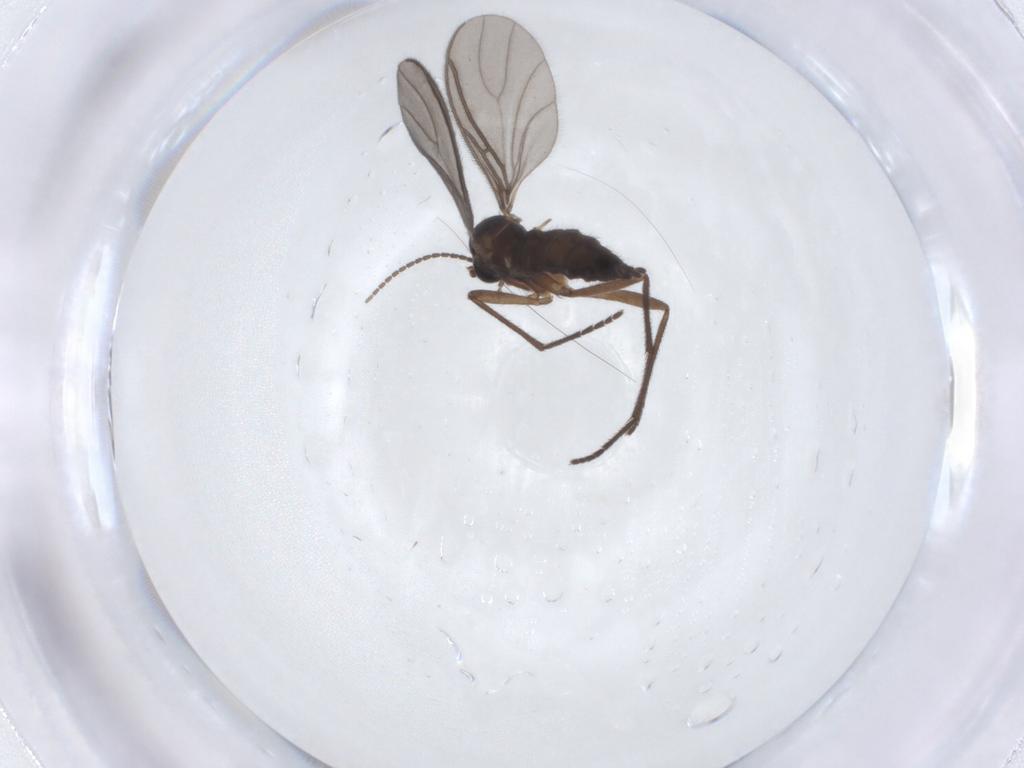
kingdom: Animalia
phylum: Arthropoda
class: Insecta
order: Diptera
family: Sciaridae
